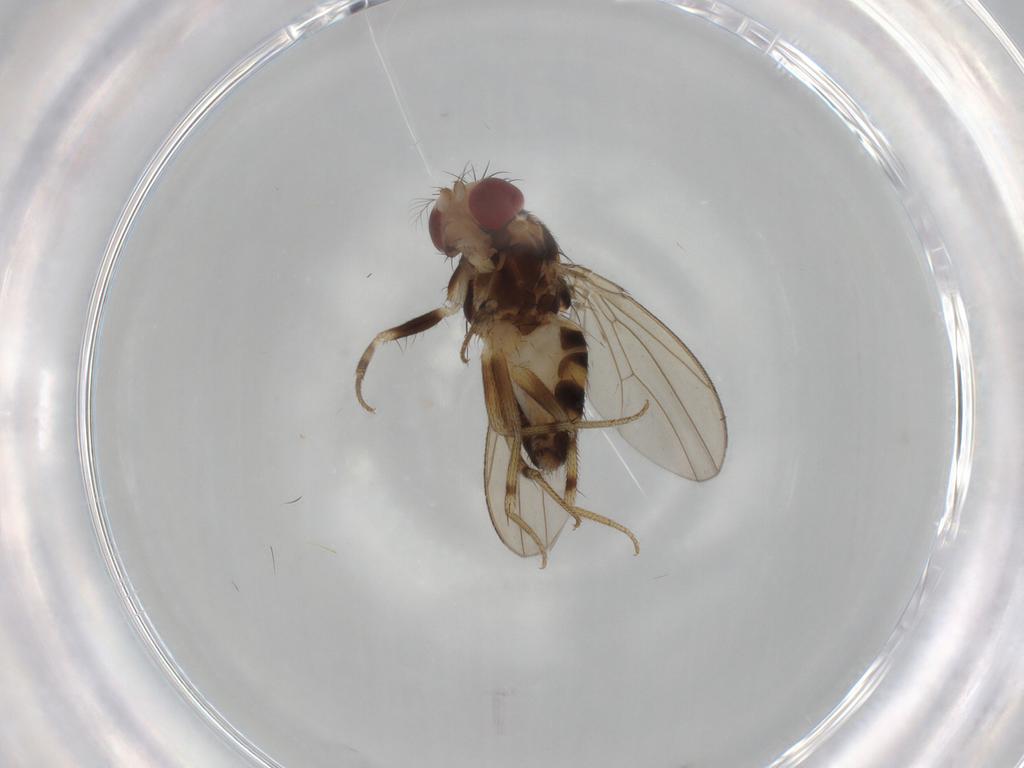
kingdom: Animalia
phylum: Arthropoda
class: Insecta
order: Diptera
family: Drosophilidae
